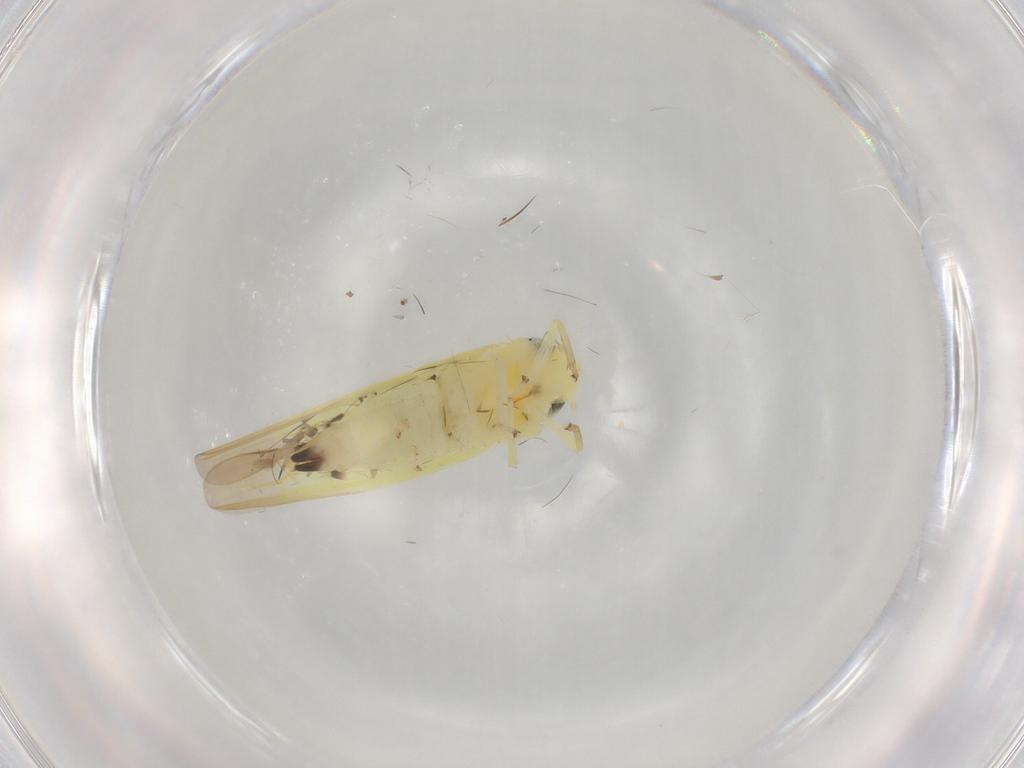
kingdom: Animalia
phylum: Arthropoda
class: Insecta
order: Hemiptera
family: Cicadellidae
